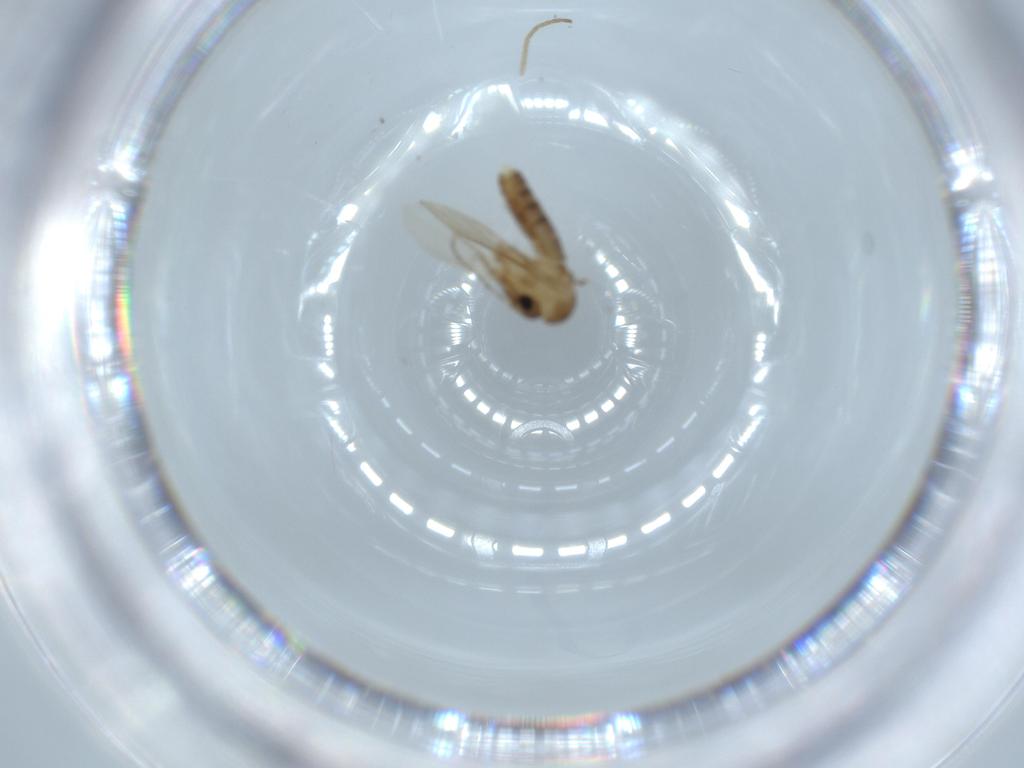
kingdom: Animalia
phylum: Arthropoda
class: Insecta
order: Diptera
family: Psychodidae
